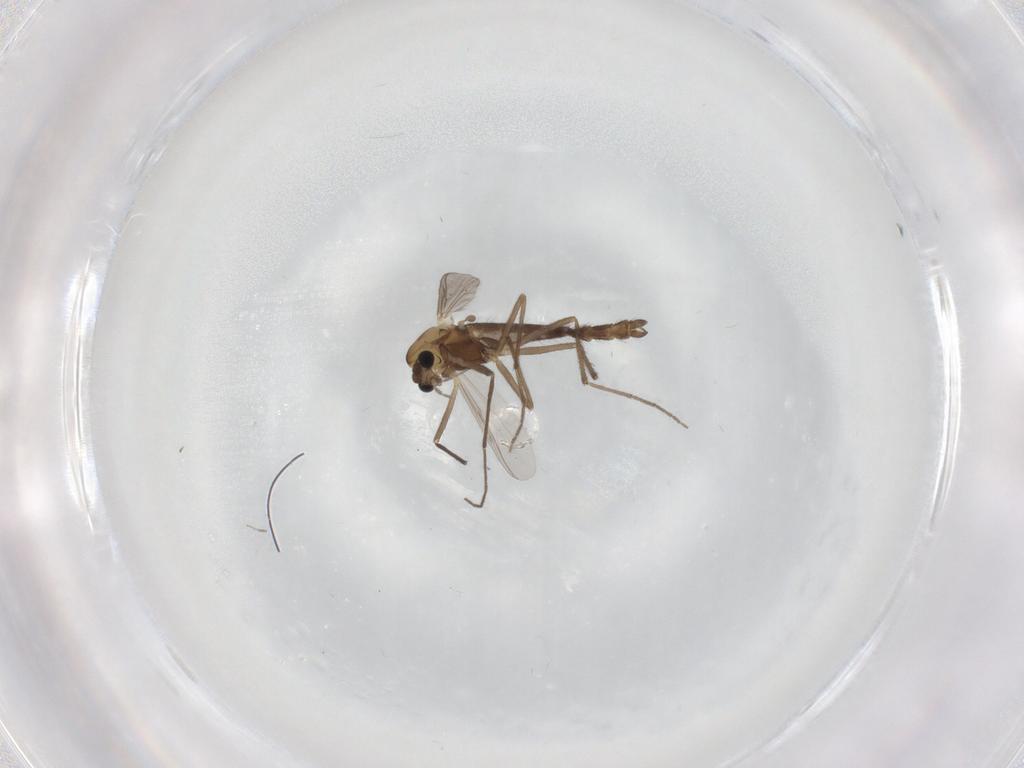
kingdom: Animalia
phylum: Arthropoda
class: Insecta
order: Diptera
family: Chironomidae
